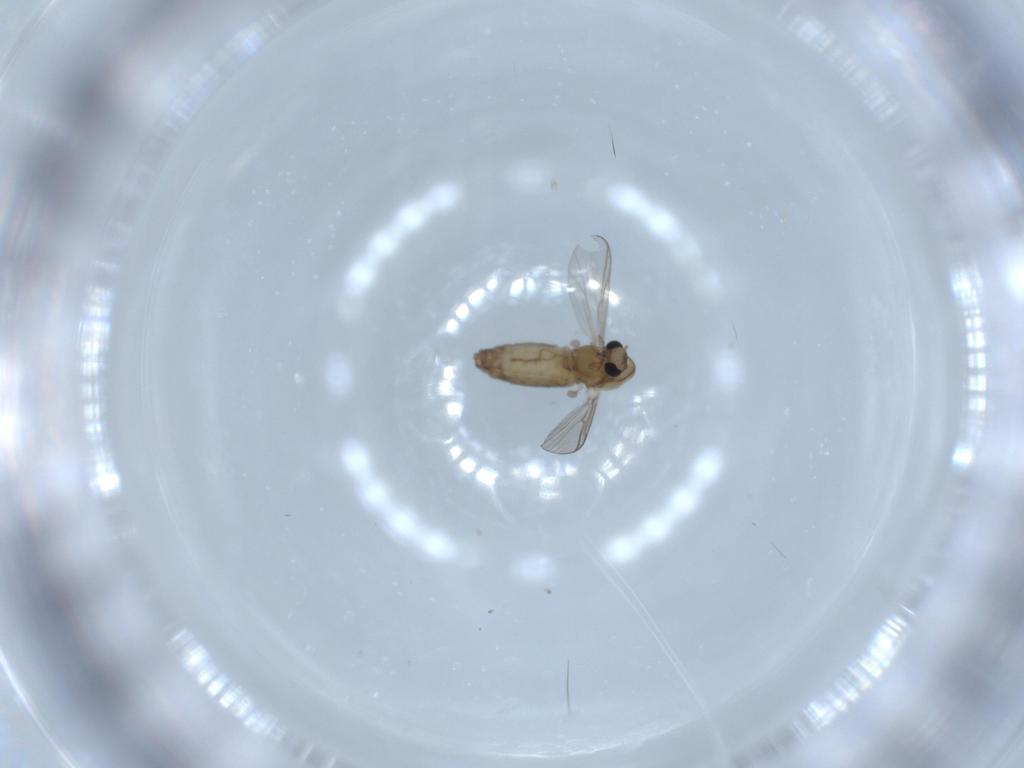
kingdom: Animalia
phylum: Arthropoda
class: Insecta
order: Diptera
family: Chironomidae
